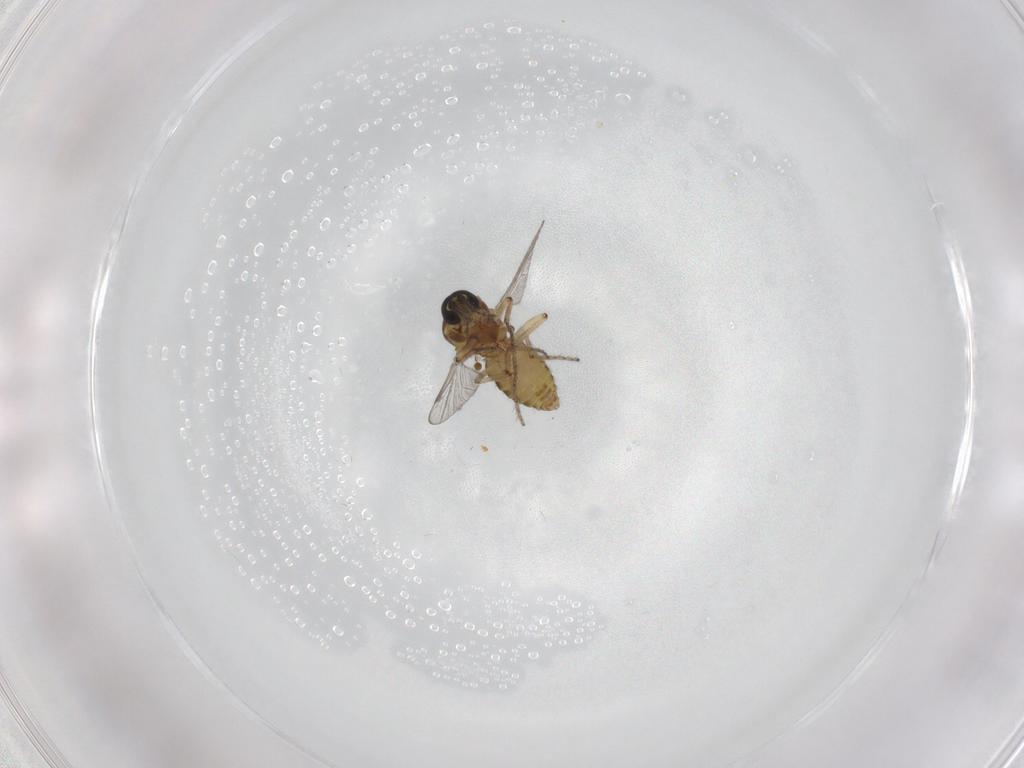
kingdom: Animalia
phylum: Arthropoda
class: Insecta
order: Diptera
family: Ceratopogonidae
